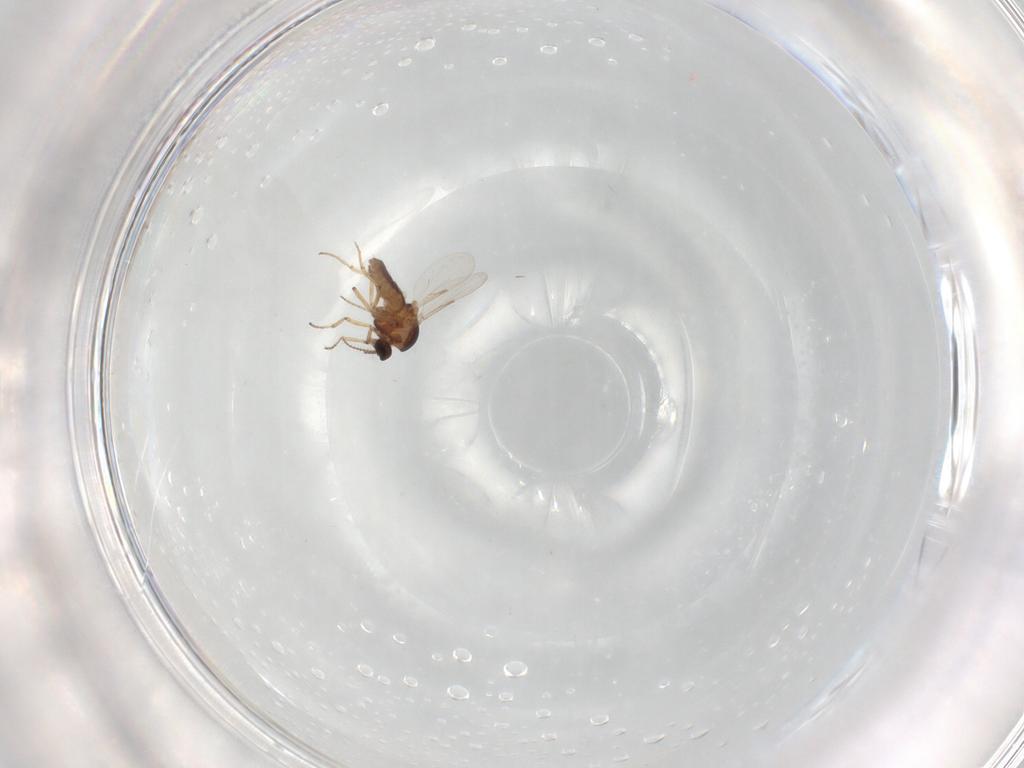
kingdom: Animalia
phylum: Arthropoda
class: Insecta
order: Diptera
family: Ceratopogonidae
